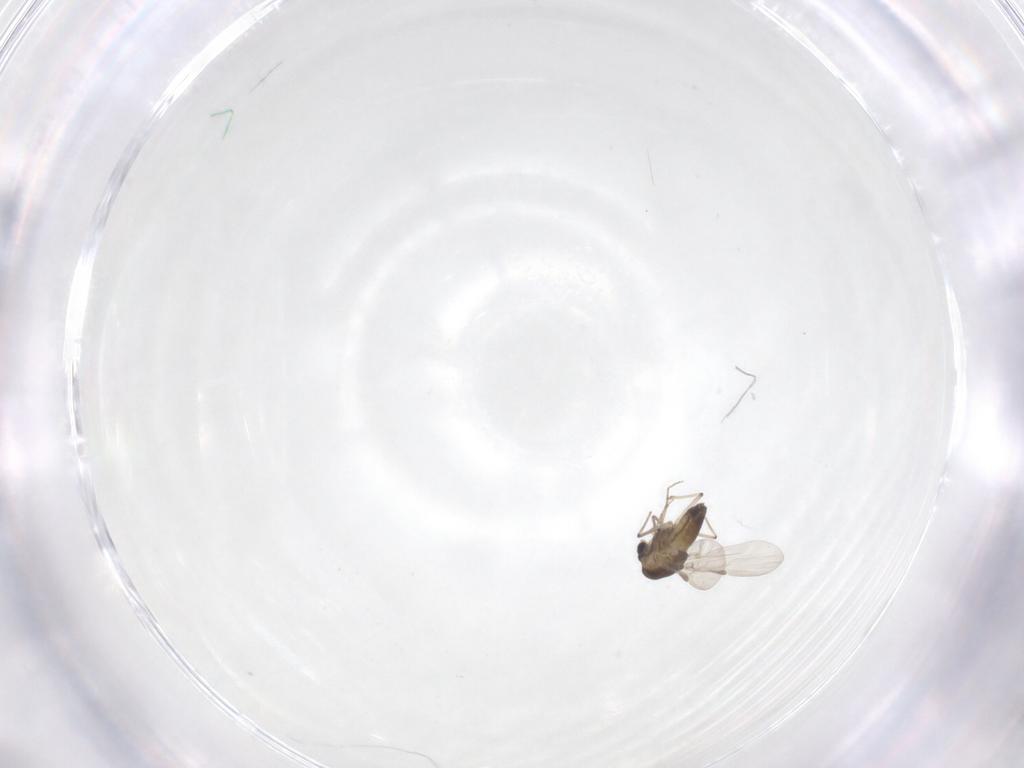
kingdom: Animalia
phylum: Arthropoda
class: Insecta
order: Diptera
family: Chironomidae
